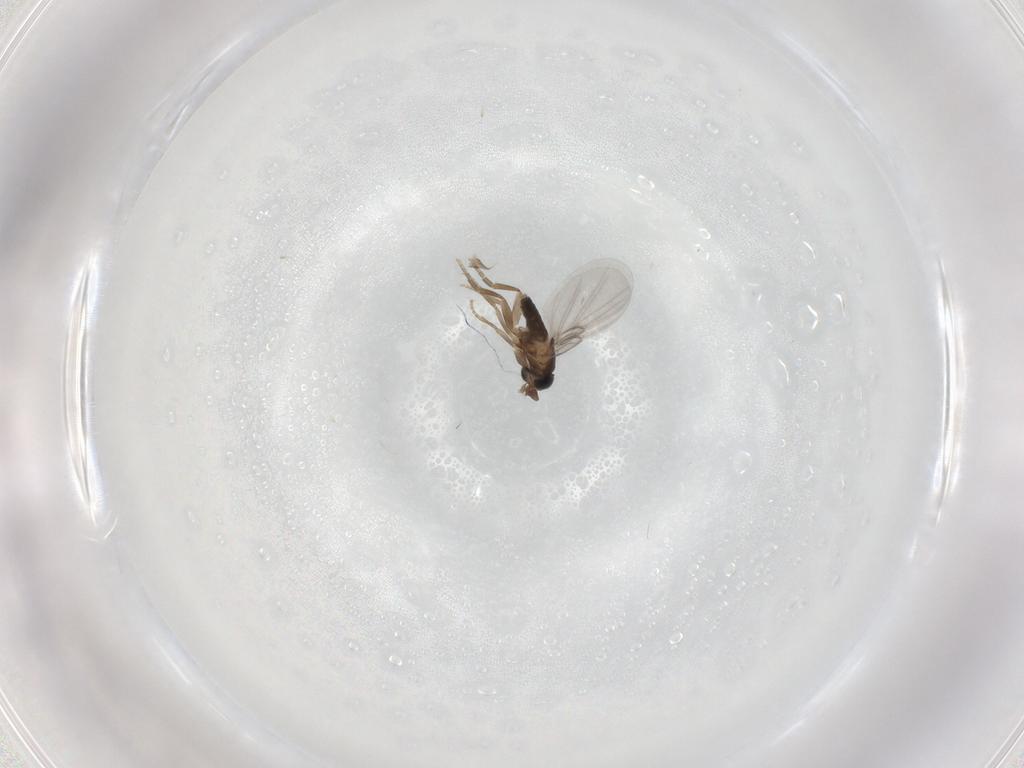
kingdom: Animalia
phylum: Arthropoda
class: Insecta
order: Diptera
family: Phoridae
